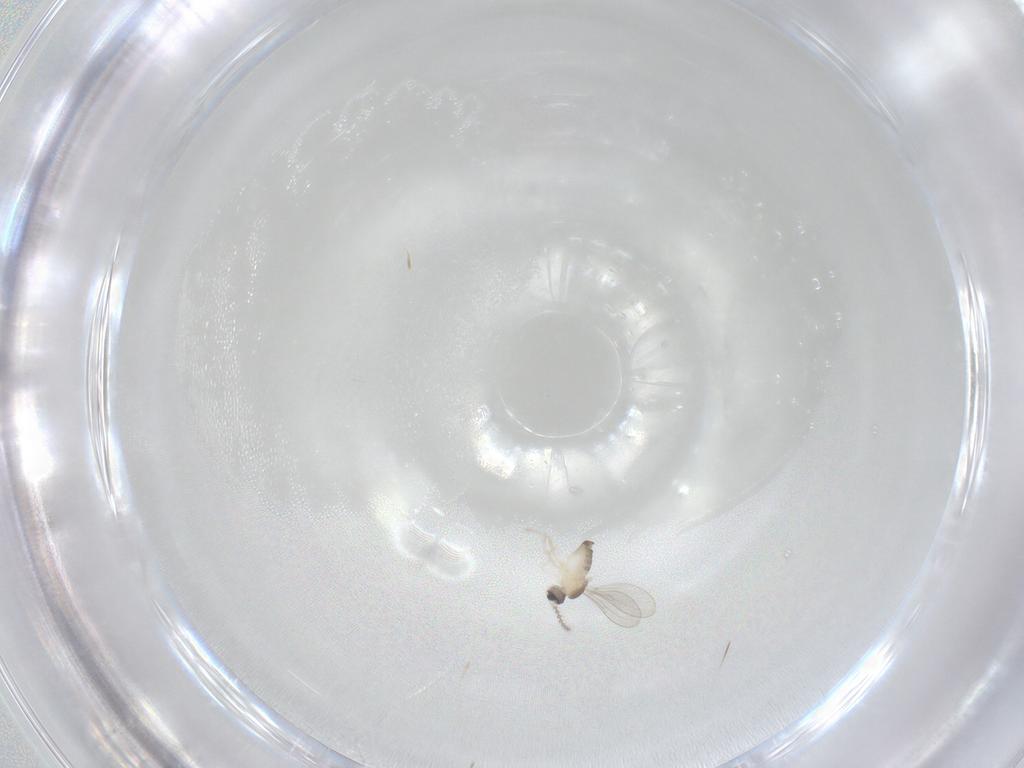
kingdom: Animalia
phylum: Arthropoda
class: Insecta
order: Diptera
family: Cecidomyiidae
